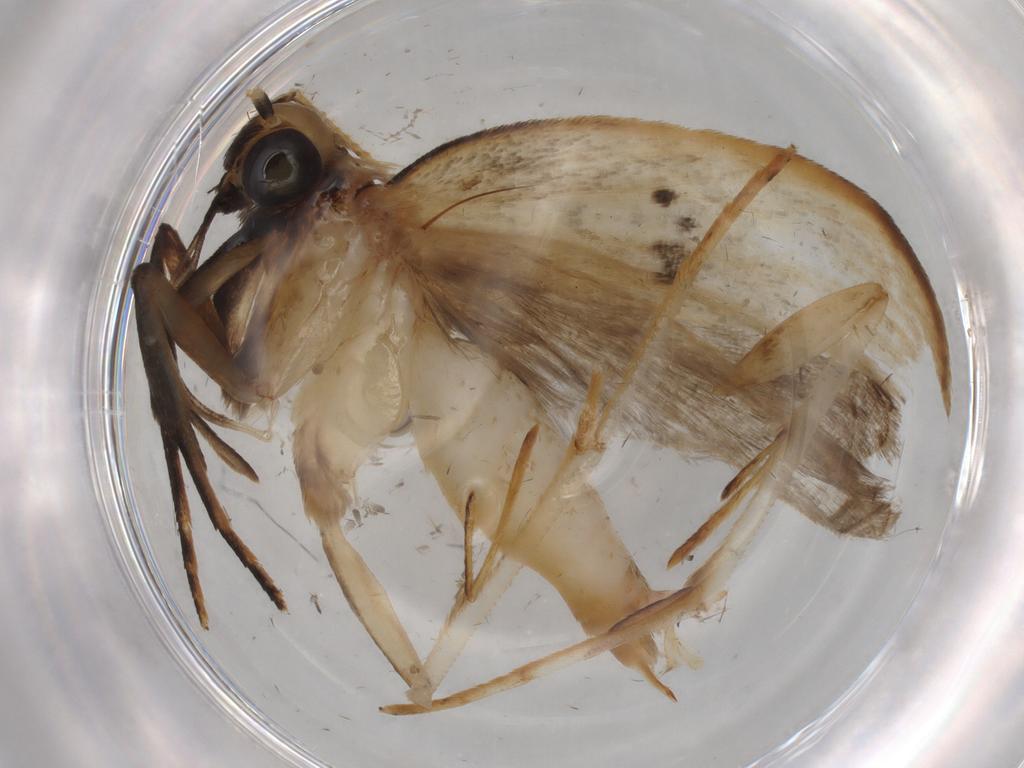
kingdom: Animalia
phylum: Arthropoda
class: Insecta
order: Lepidoptera
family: Gelechiidae
